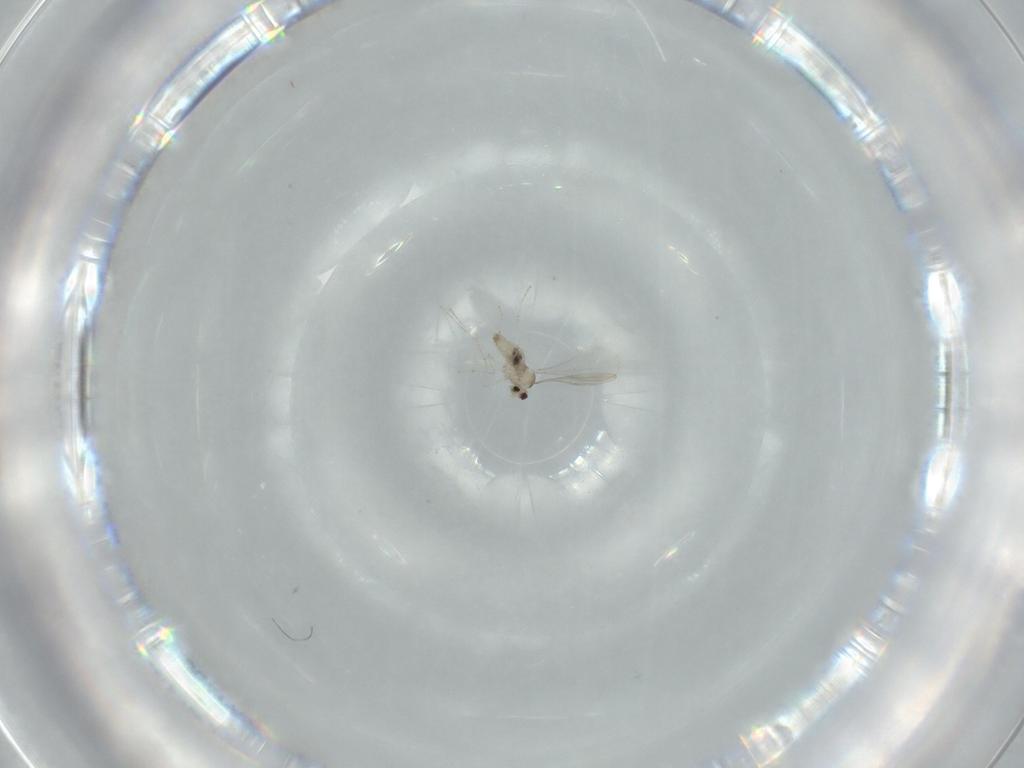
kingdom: Animalia
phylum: Arthropoda
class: Insecta
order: Diptera
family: Cecidomyiidae
